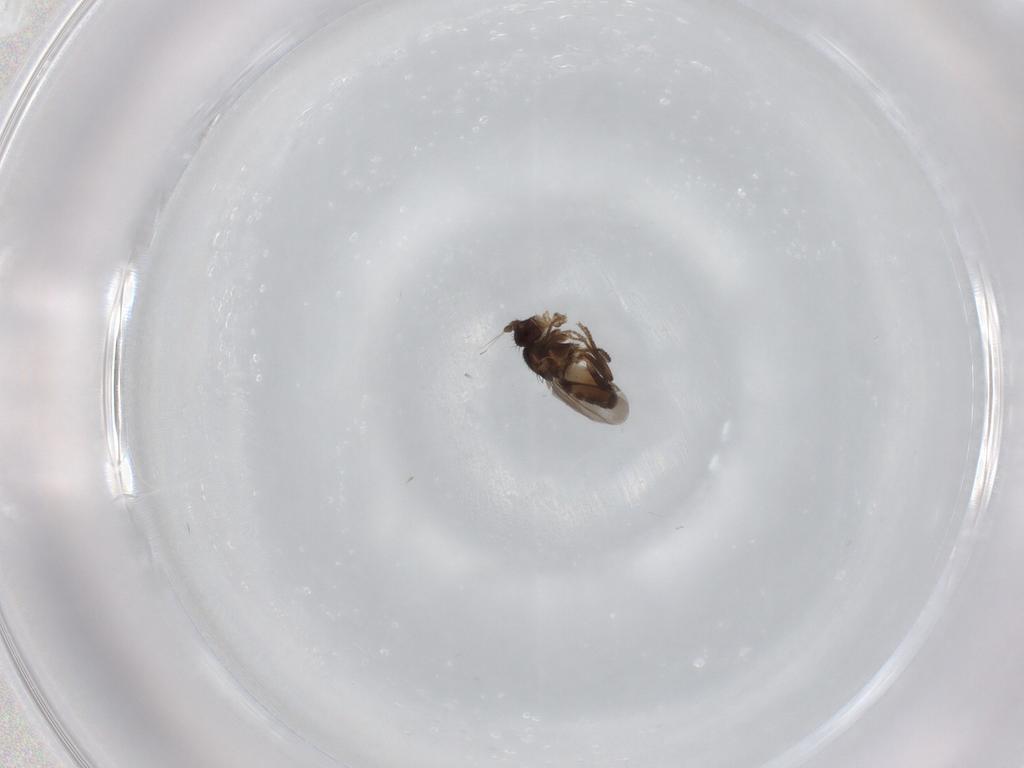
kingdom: Animalia
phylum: Arthropoda
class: Insecta
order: Diptera
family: Sphaeroceridae
